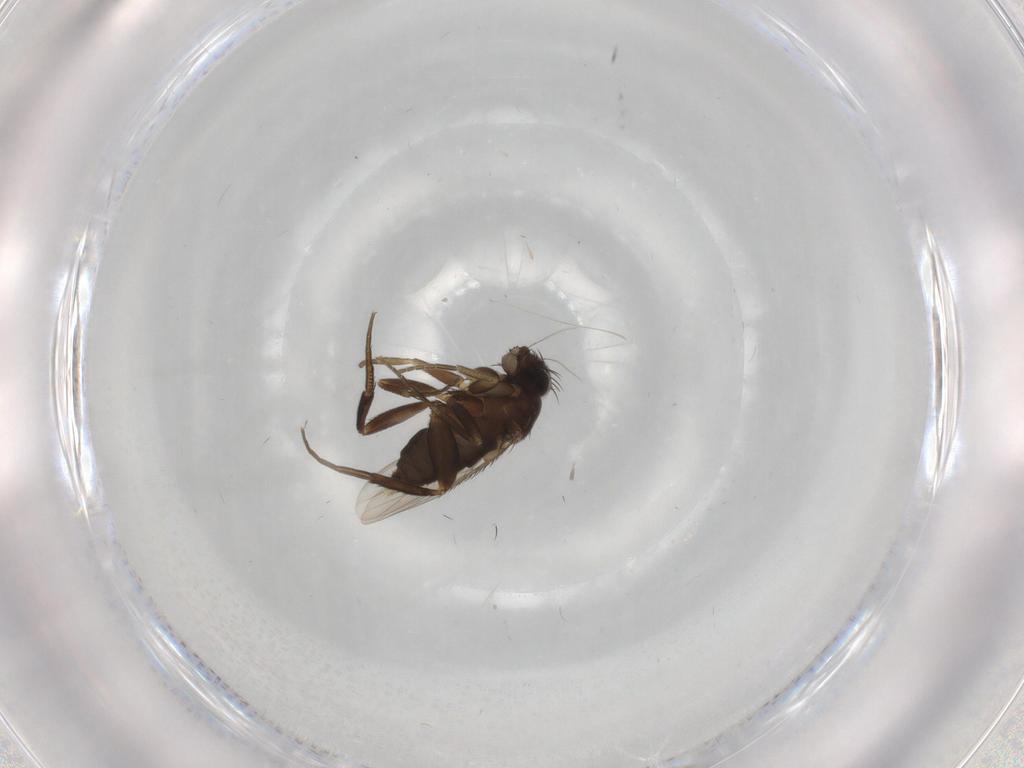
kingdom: Animalia
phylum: Arthropoda
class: Insecta
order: Diptera
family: Phoridae
